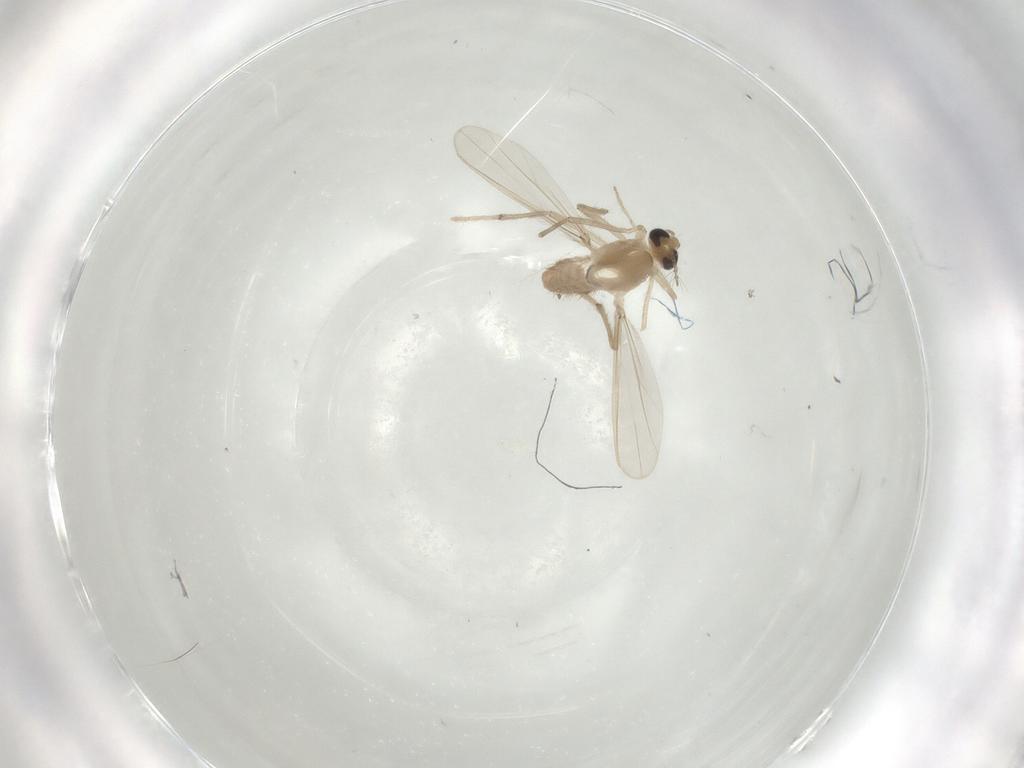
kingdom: Animalia
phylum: Arthropoda
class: Insecta
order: Diptera
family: Chironomidae
